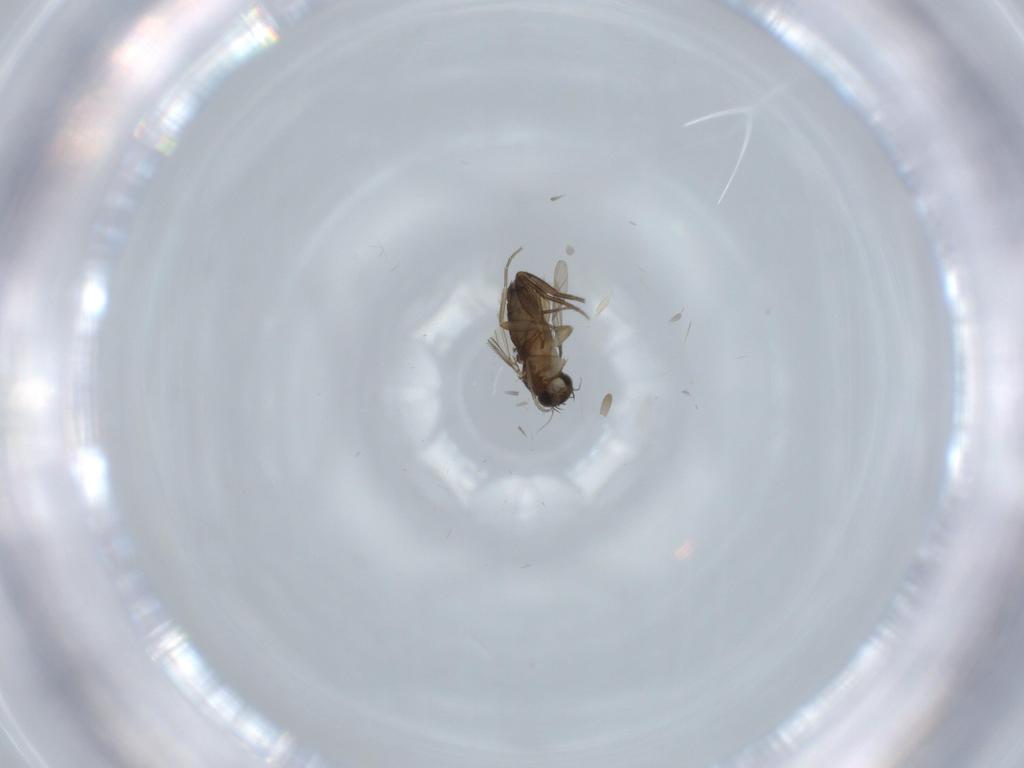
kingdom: Animalia
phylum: Arthropoda
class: Insecta
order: Diptera
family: Phoridae
